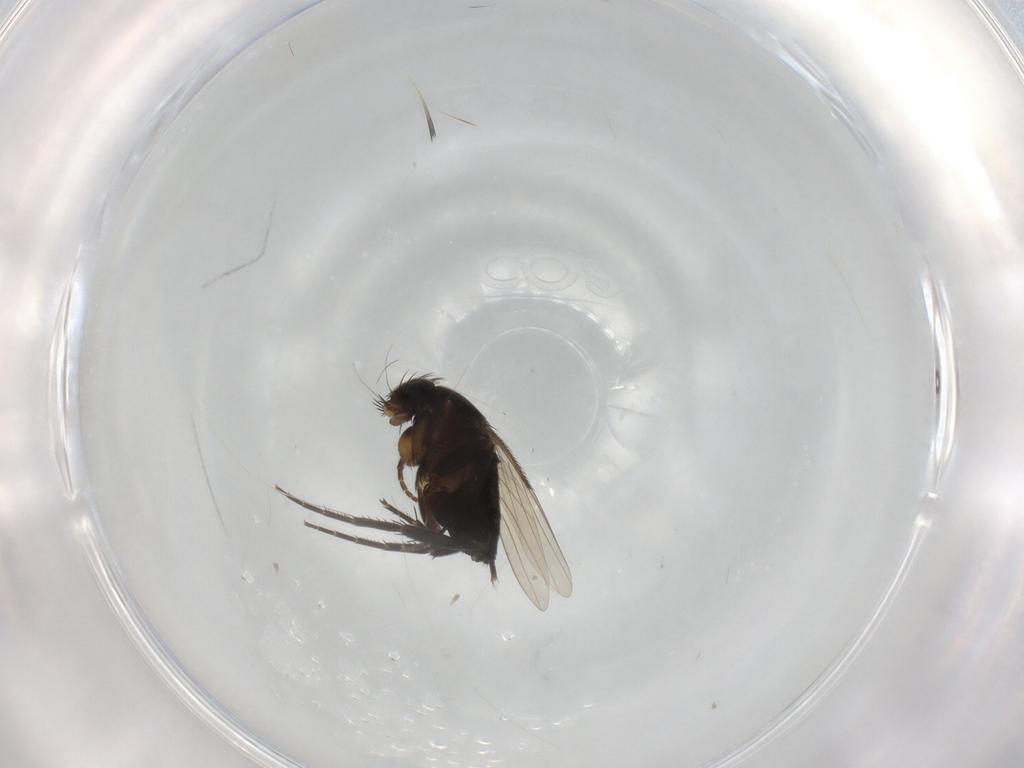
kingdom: Animalia
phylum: Arthropoda
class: Insecta
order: Diptera
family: Phoridae
